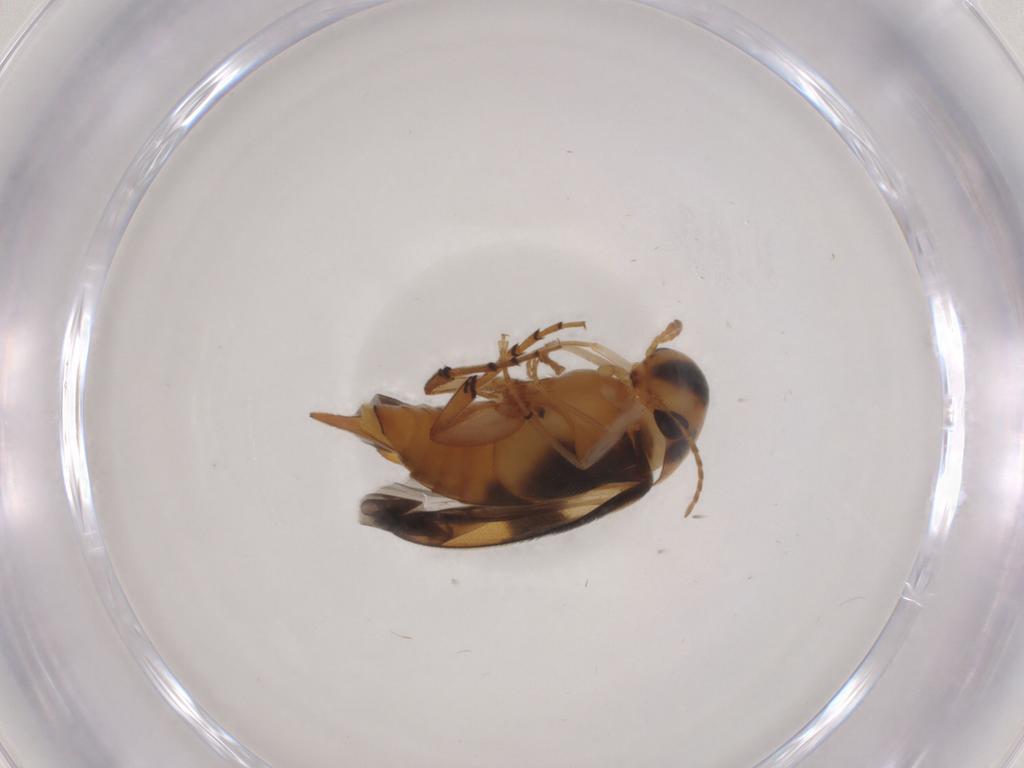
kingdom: Animalia
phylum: Arthropoda
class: Insecta
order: Coleoptera
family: Mordellidae
